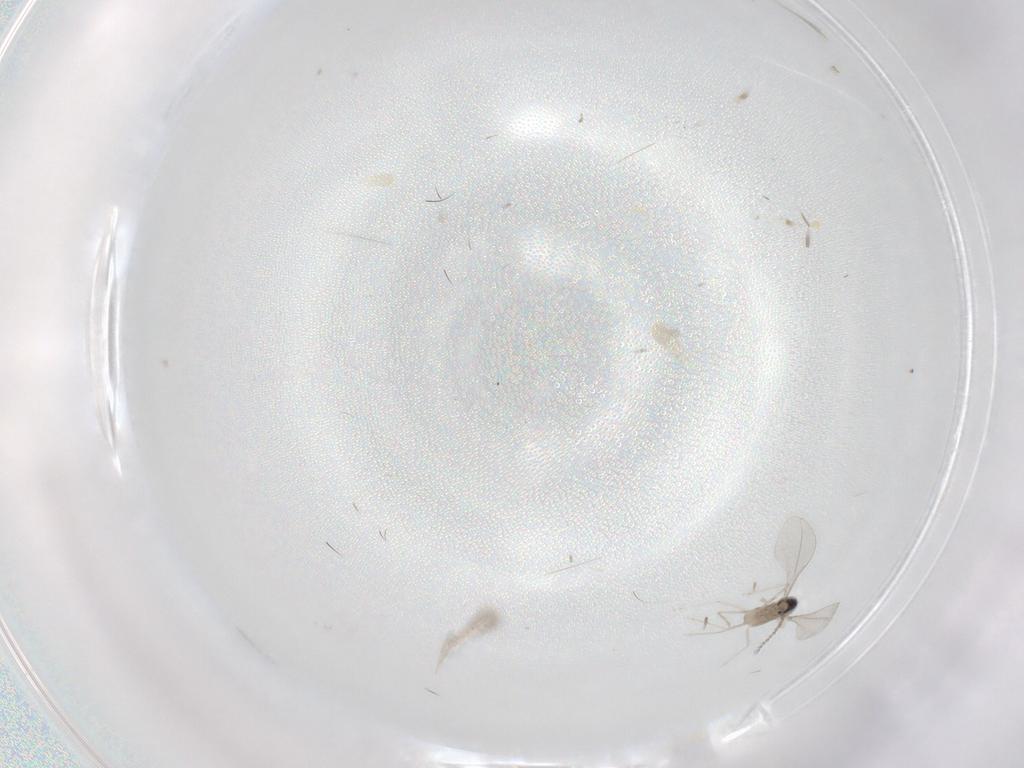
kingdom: Animalia
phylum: Arthropoda
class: Insecta
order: Diptera
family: Cecidomyiidae
